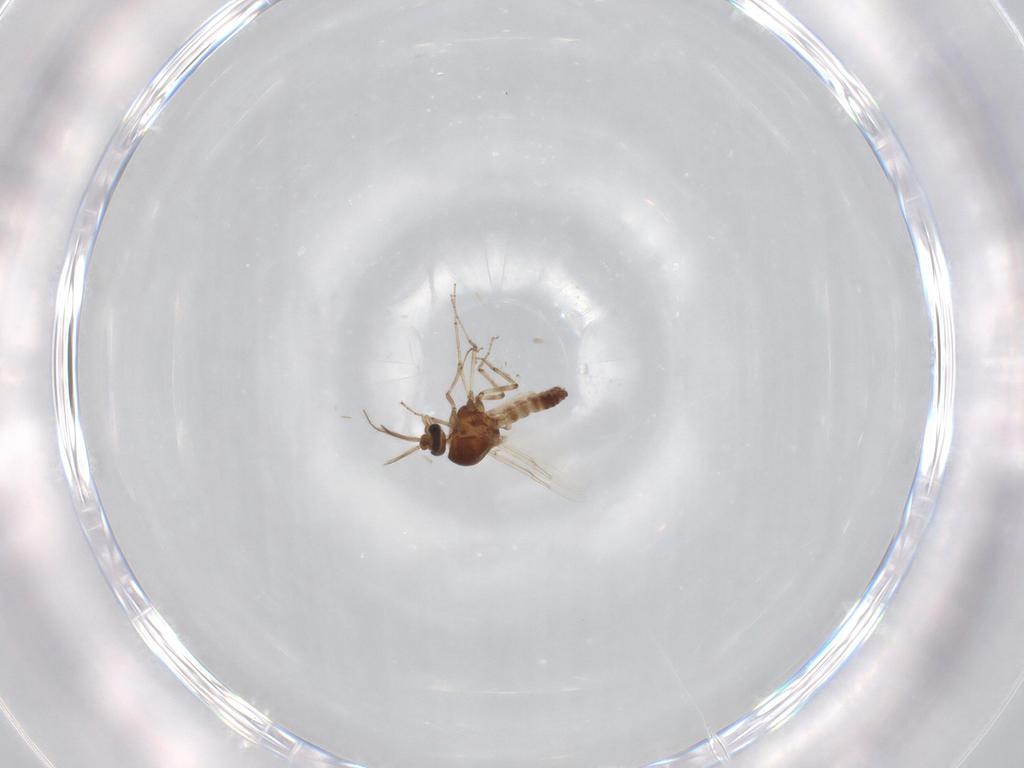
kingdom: Animalia
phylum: Arthropoda
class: Insecta
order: Diptera
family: Ceratopogonidae
